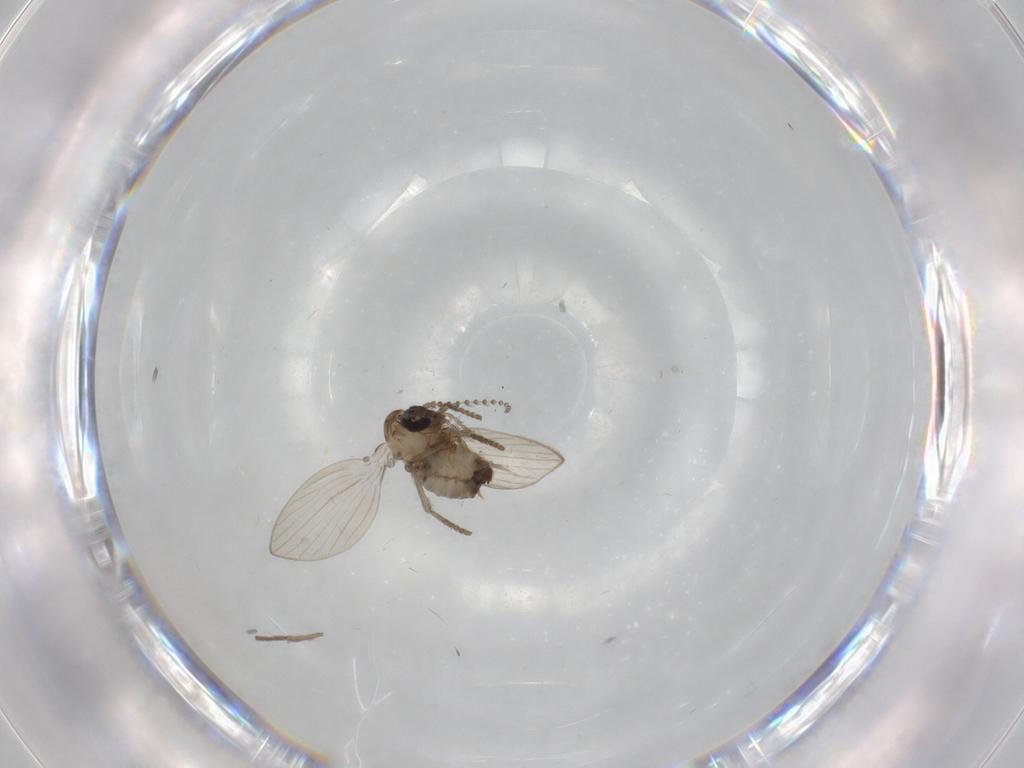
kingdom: Animalia
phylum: Arthropoda
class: Insecta
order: Diptera
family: Psychodidae
